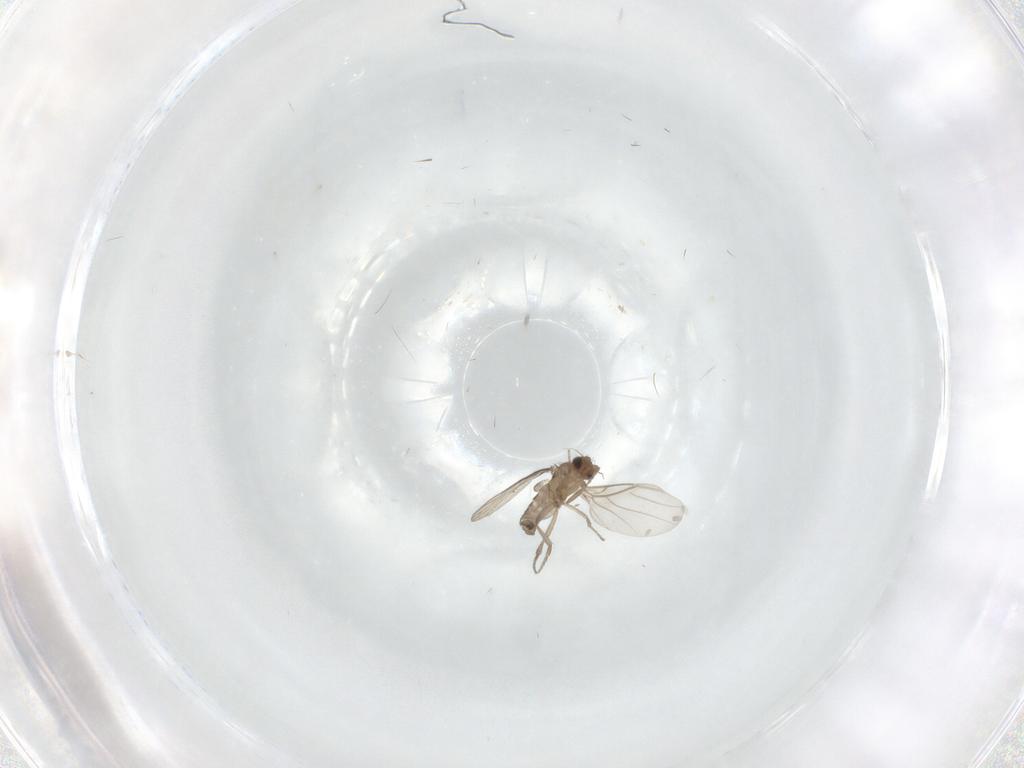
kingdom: Animalia
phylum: Arthropoda
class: Insecta
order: Diptera
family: Phoridae
